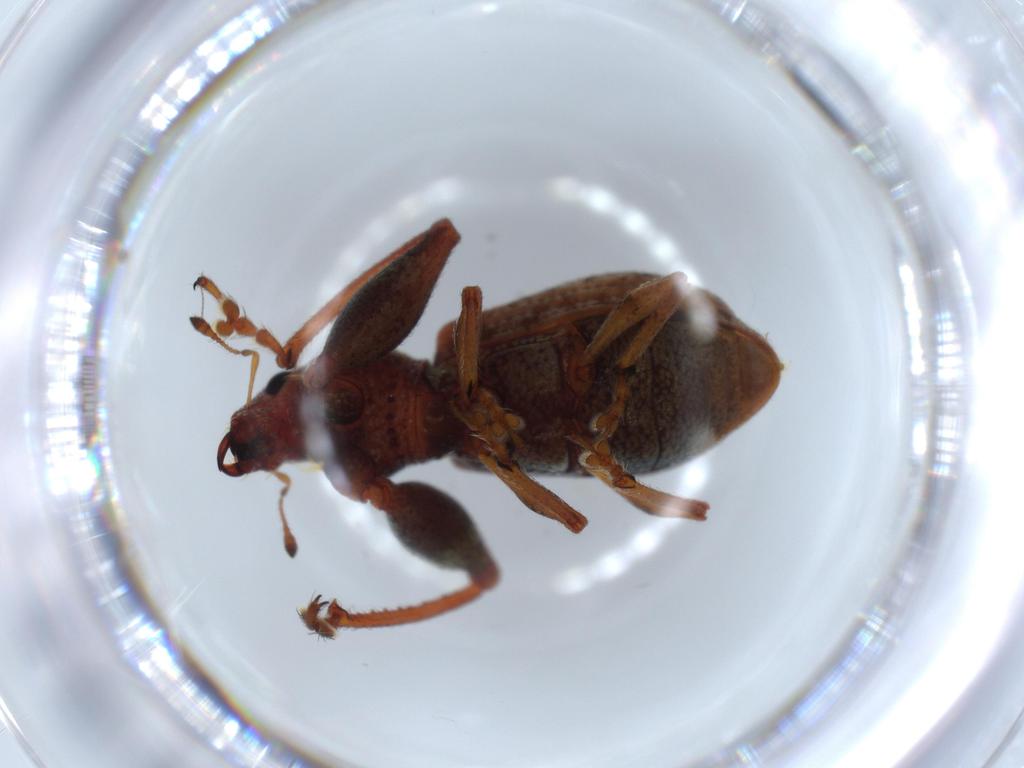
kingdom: Animalia
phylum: Arthropoda
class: Insecta
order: Coleoptera
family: Curculionidae
